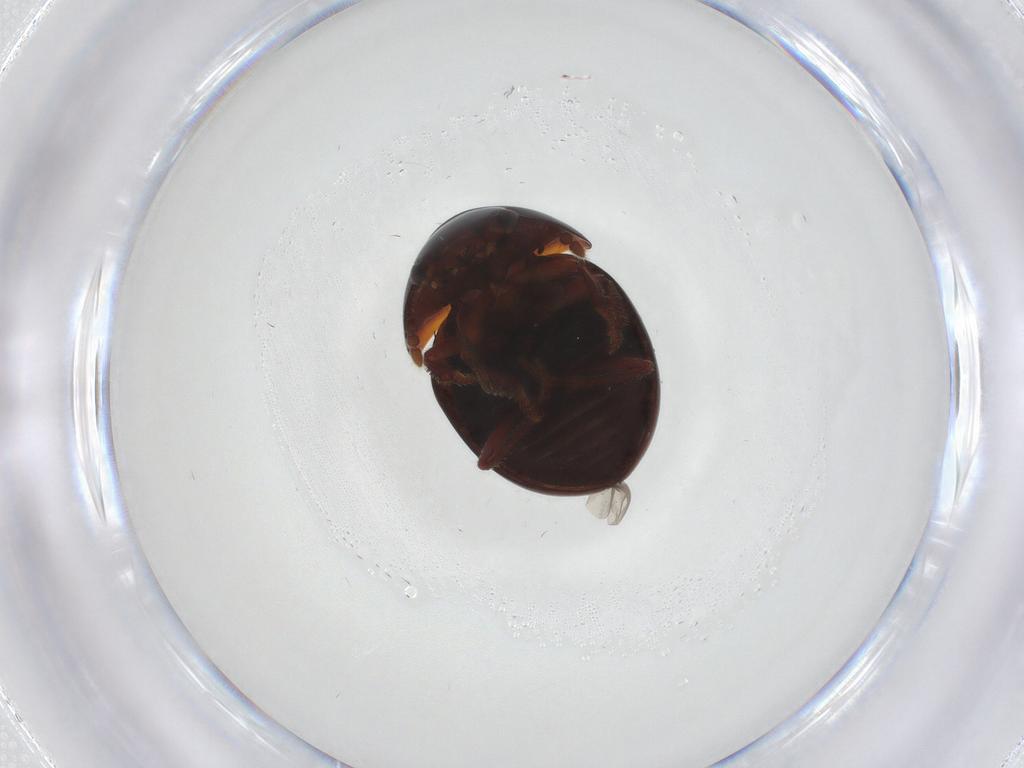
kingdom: Animalia
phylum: Arthropoda
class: Insecta
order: Coleoptera
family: Leiodidae
